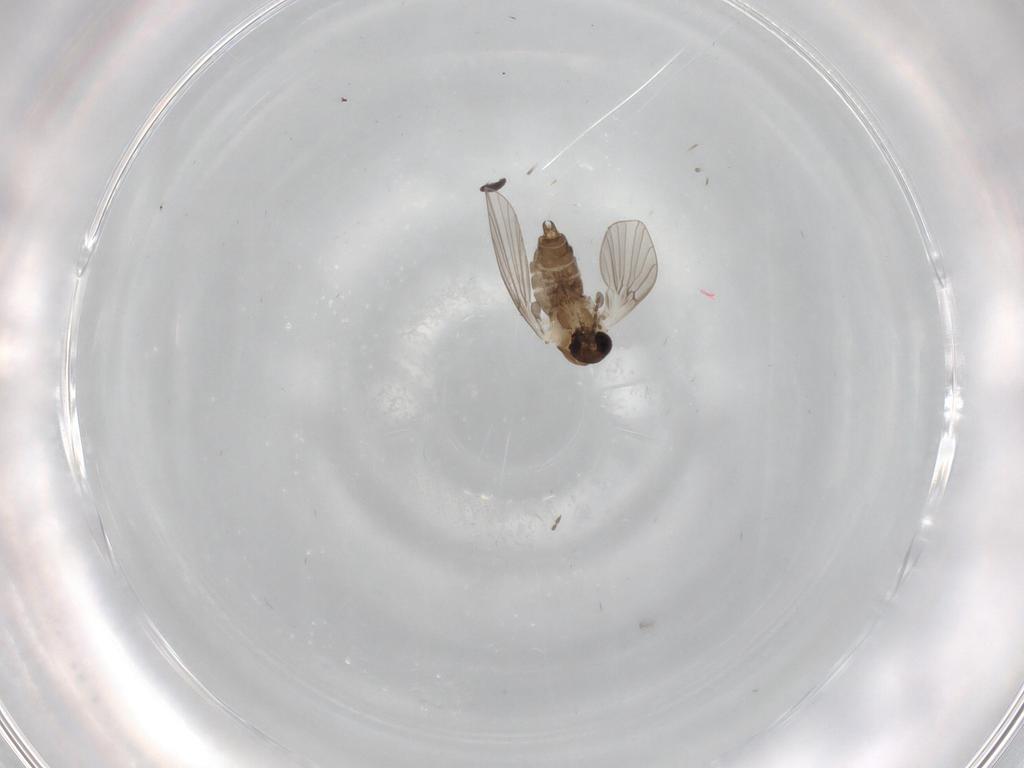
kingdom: Animalia
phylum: Arthropoda
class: Insecta
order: Diptera
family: Psychodidae
